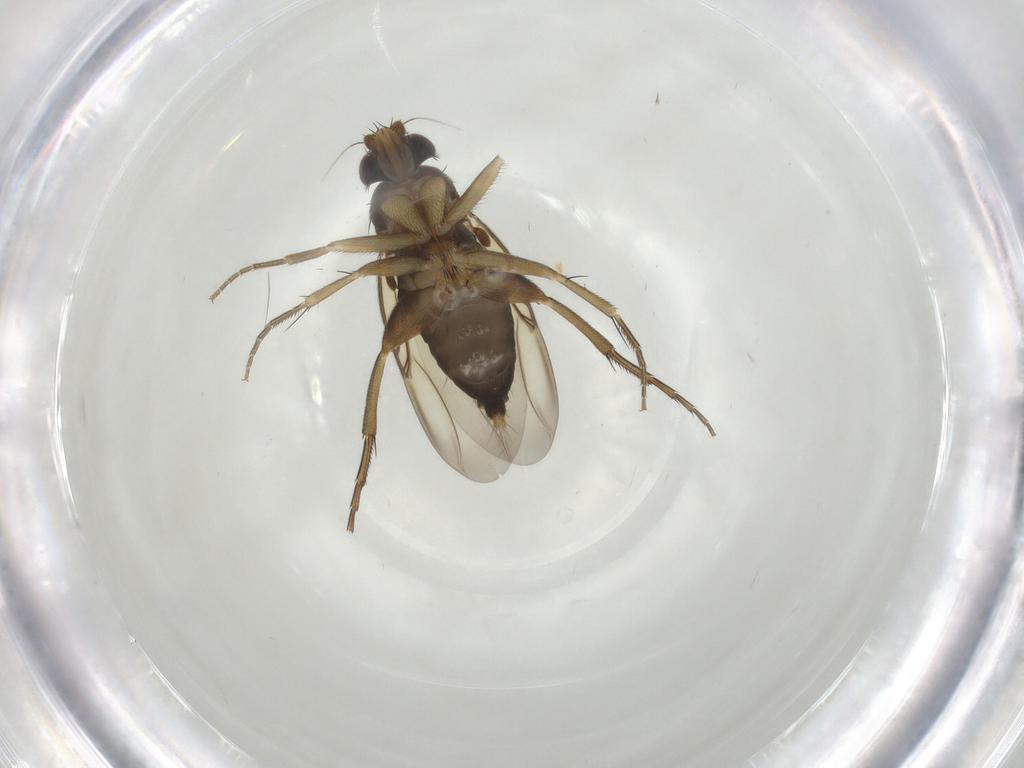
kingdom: Animalia
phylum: Arthropoda
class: Insecta
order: Diptera
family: Phoridae
